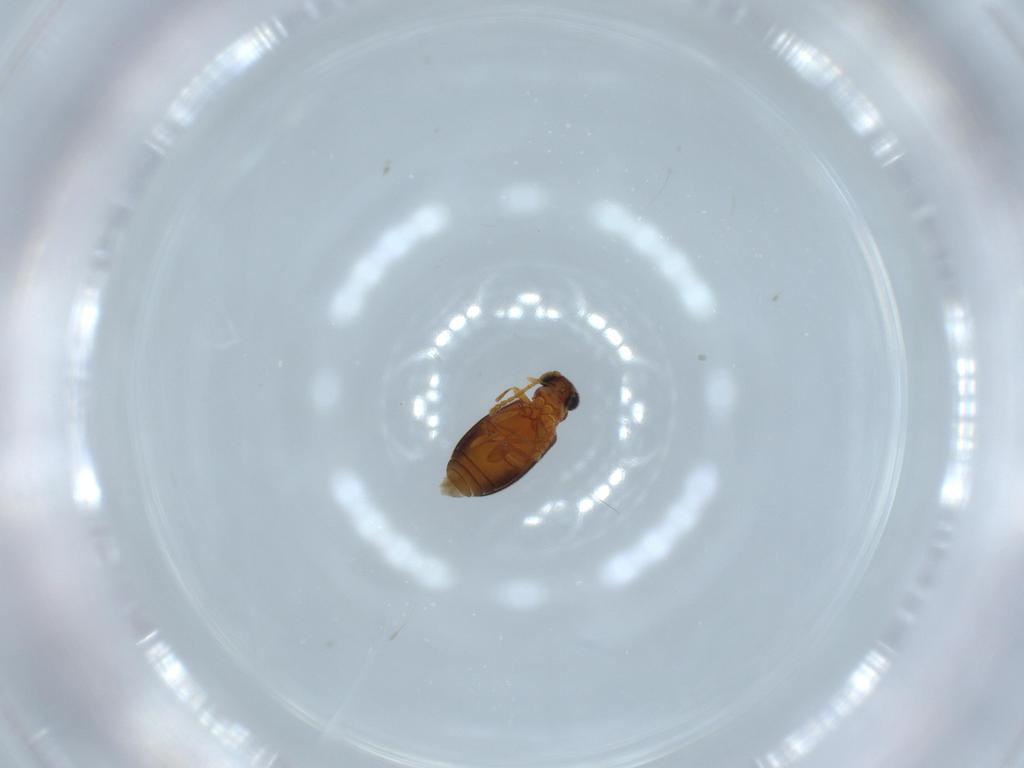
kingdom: Animalia
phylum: Arthropoda
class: Insecta
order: Coleoptera
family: Aderidae
